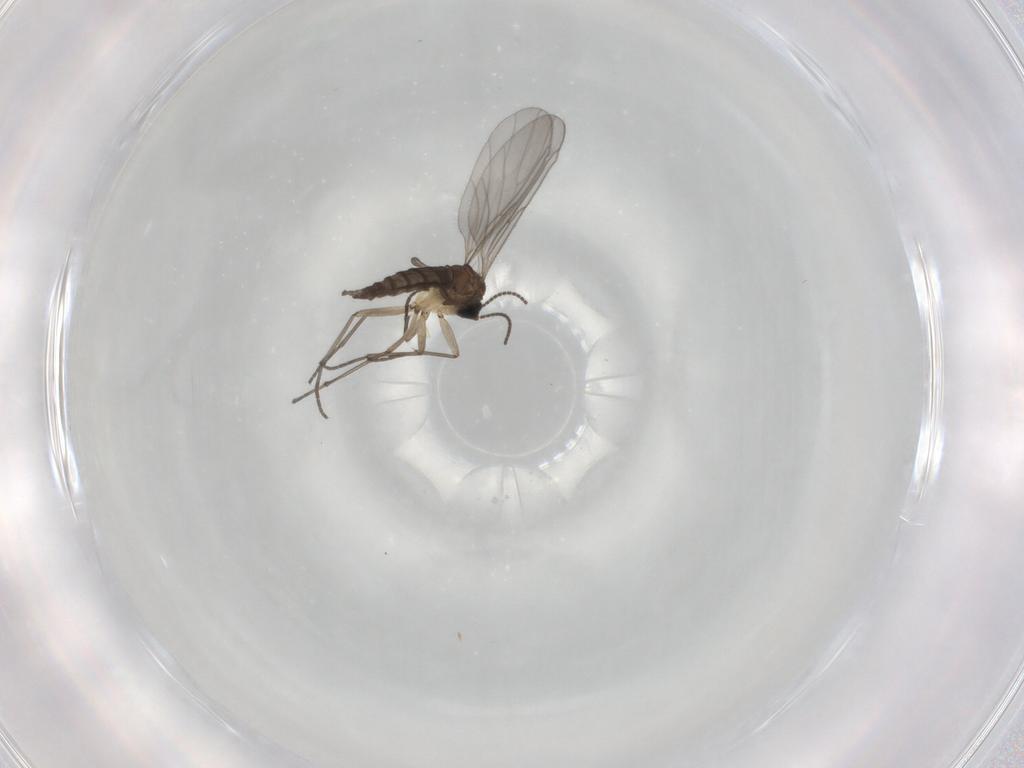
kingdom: Animalia
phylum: Arthropoda
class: Insecta
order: Diptera
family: Sciaridae
